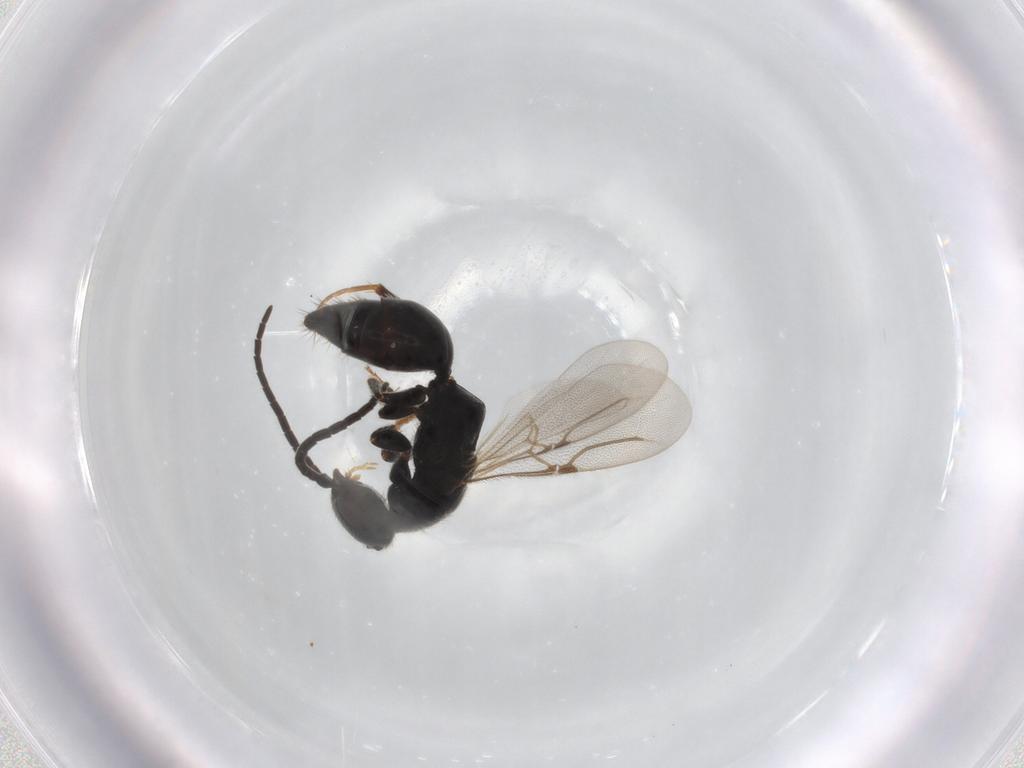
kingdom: Animalia
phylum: Arthropoda
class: Insecta
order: Hymenoptera
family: Bethylidae
